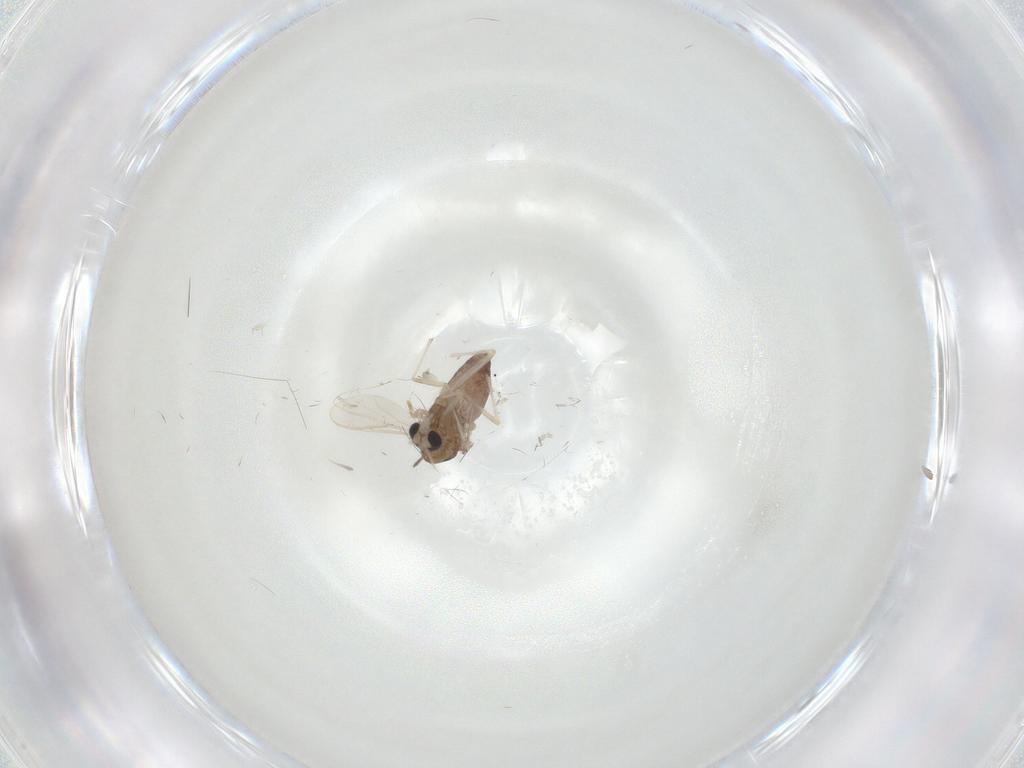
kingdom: Animalia
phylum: Arthropoda
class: Insecta
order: Diptera
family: Chironomidae
